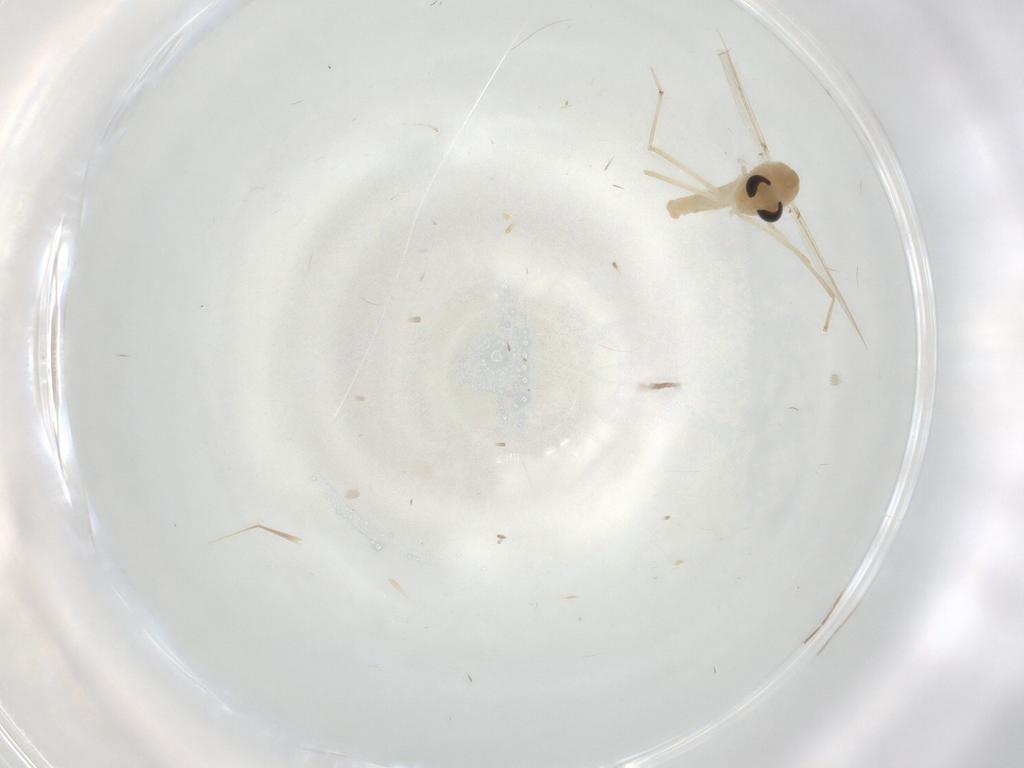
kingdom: Animalia
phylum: Arthropoda
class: Insecta
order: Diptera
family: Chironomidae
